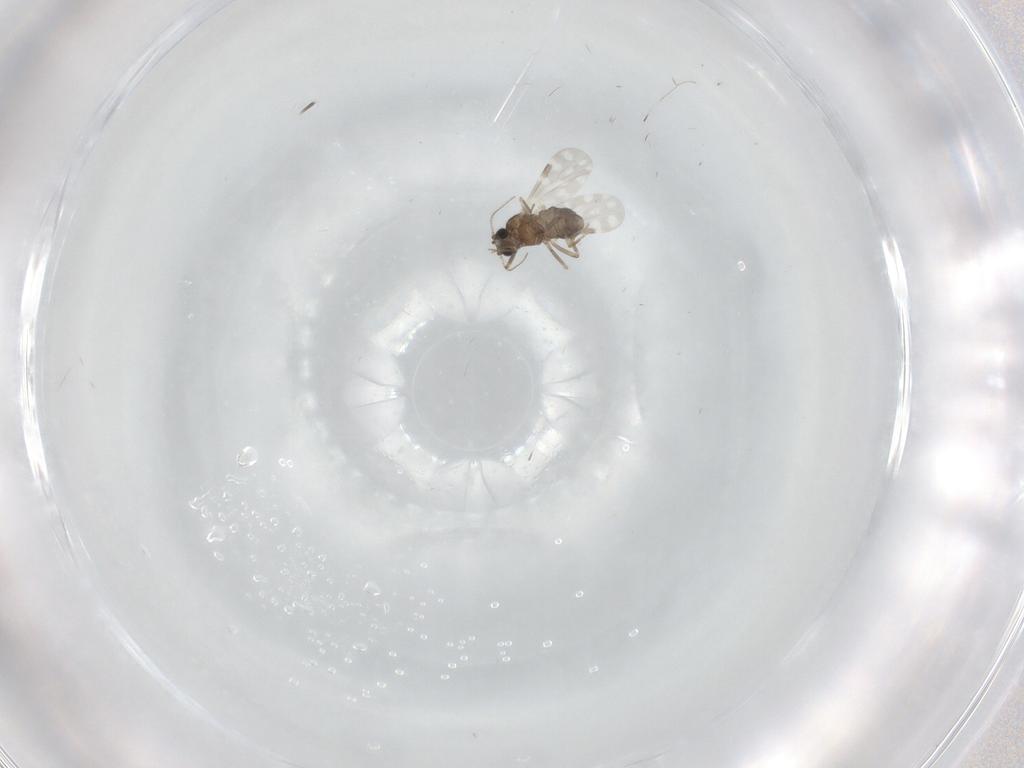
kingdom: Animalia
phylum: Arthropoda
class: Insecta
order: Diptera
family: Ceratopogonidae
